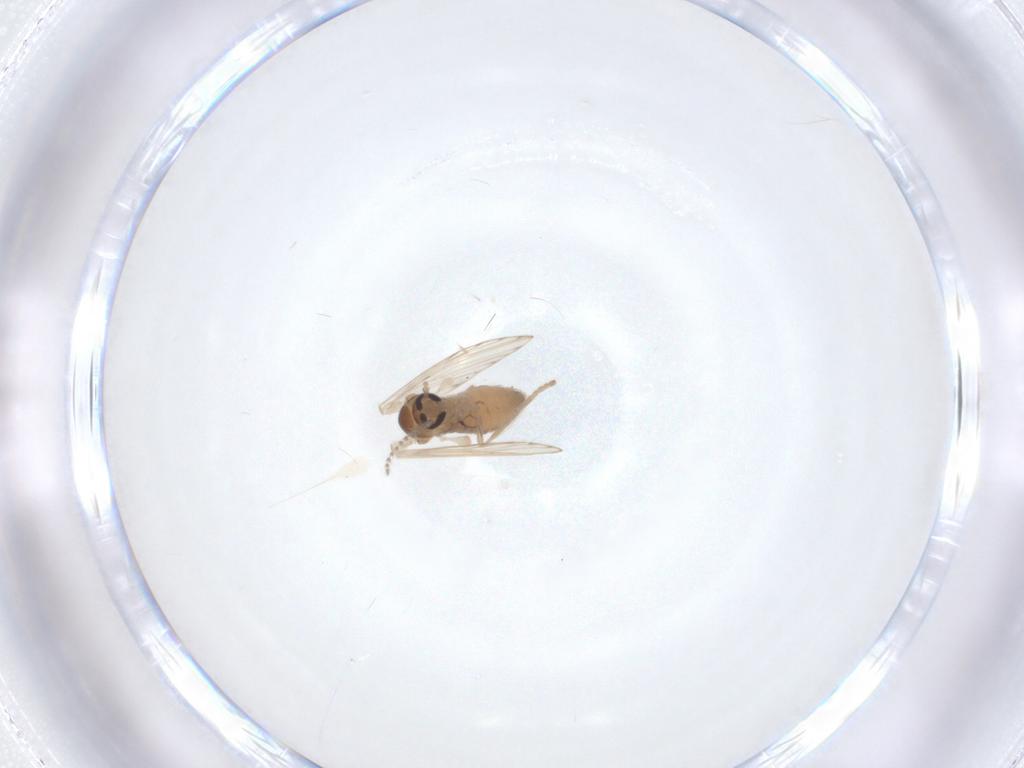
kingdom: Animalia
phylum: Arthropoda
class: Insecta
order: Diptera
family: Psychodidae
